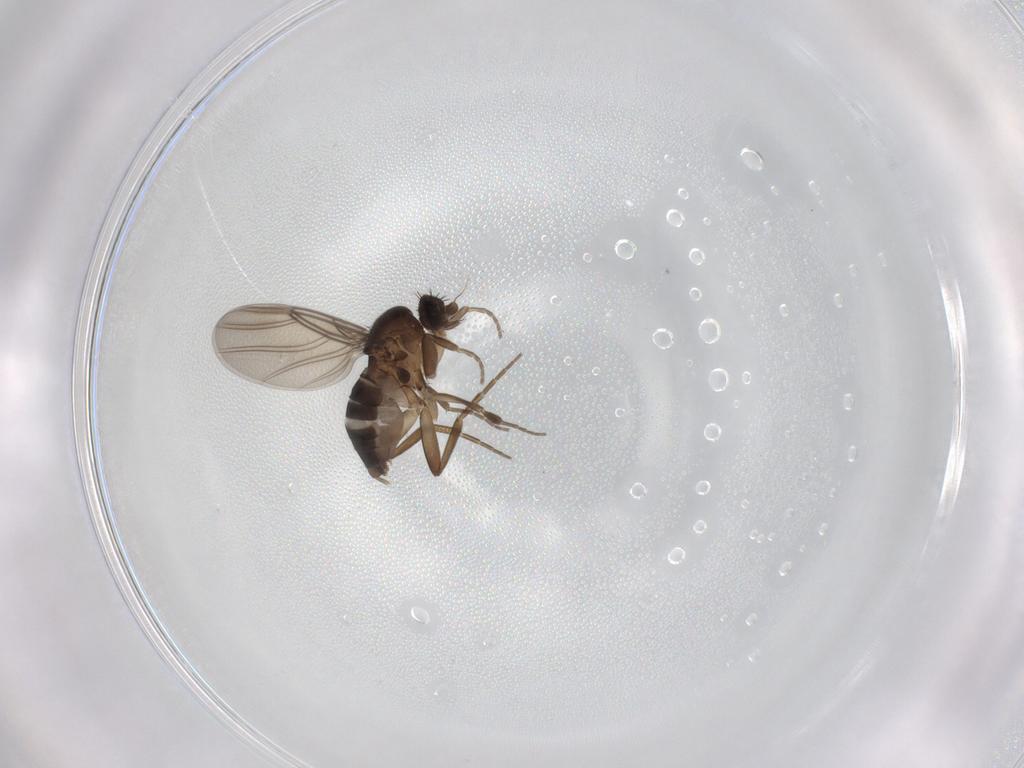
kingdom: Animalia
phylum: Arthropoda
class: Insecta
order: Diptera
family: Phoridae
